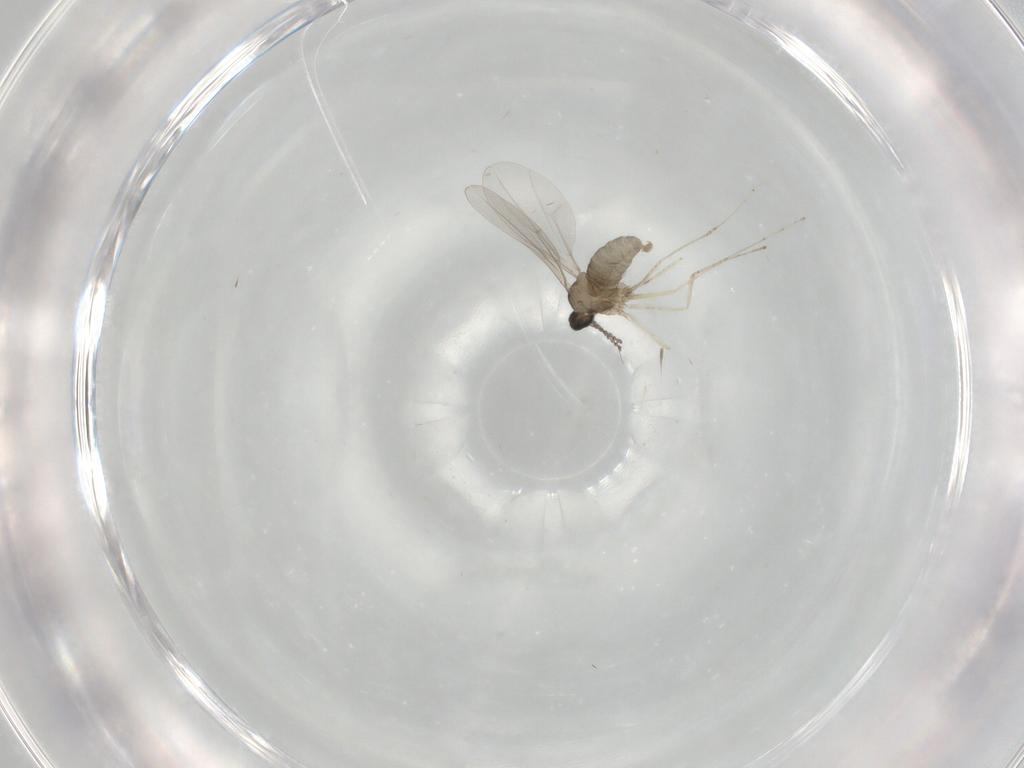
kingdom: Animalia
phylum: Arthropoda
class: Insecta
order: Diptera
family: Cecidomyiidae
